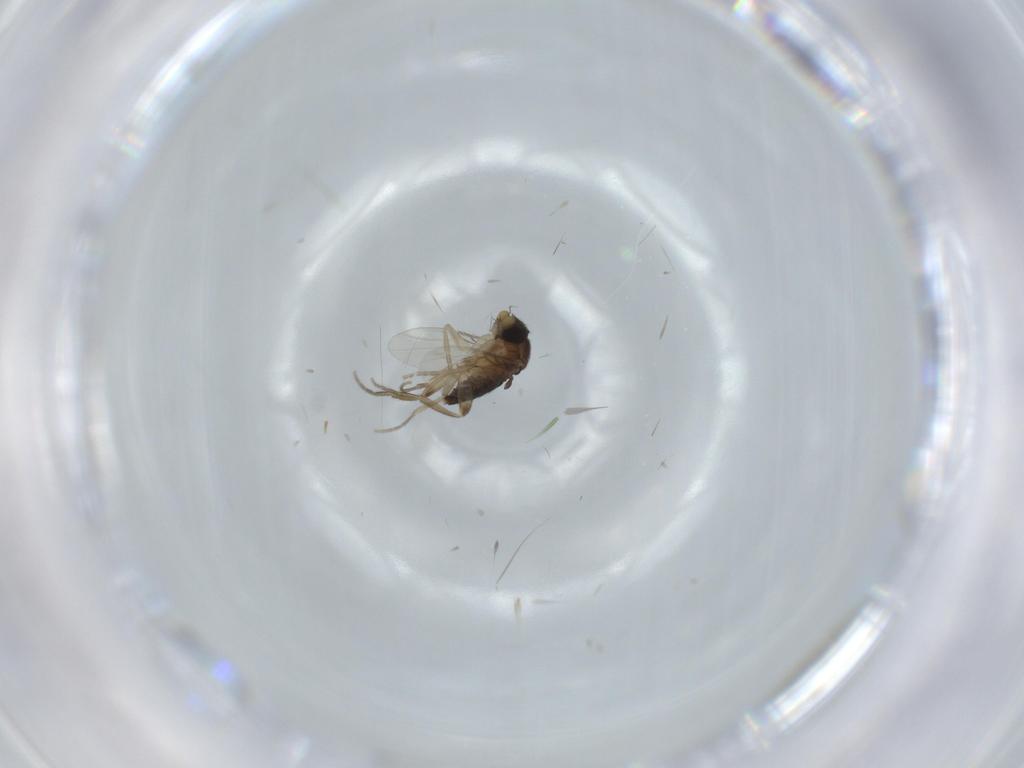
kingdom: Animalia
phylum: Arthropoda
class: Insecta
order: Diptera
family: Phoridae
